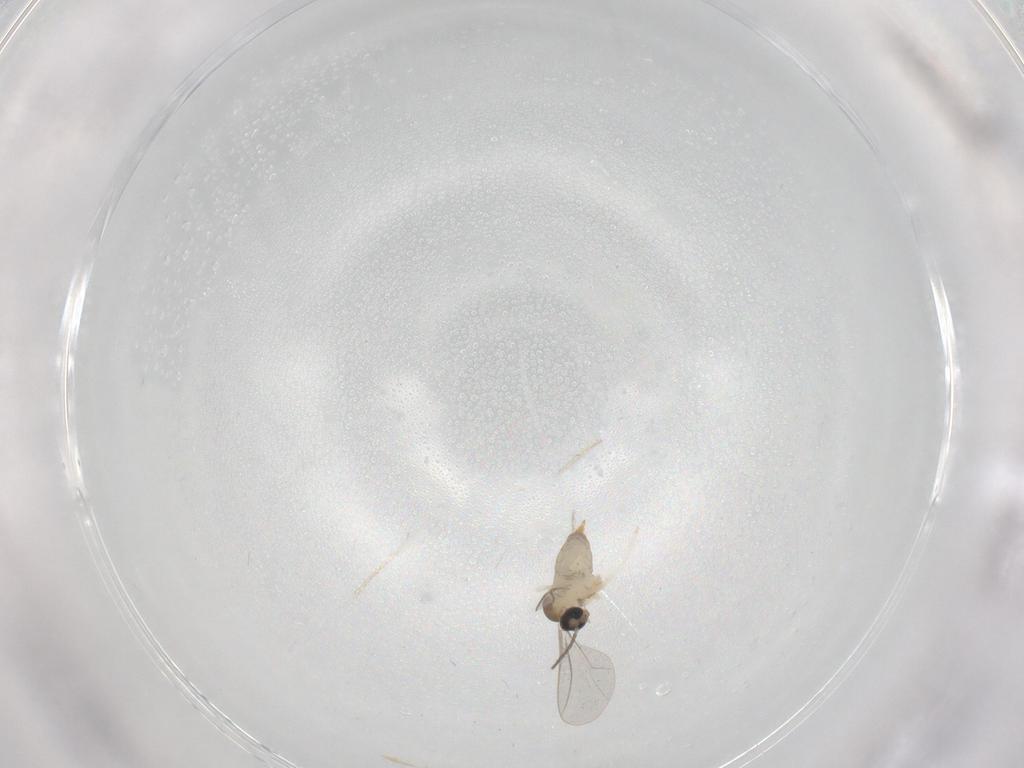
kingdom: Animalia
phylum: Arthropoda
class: Insecta
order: Diptera
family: Cecidomyiidae
